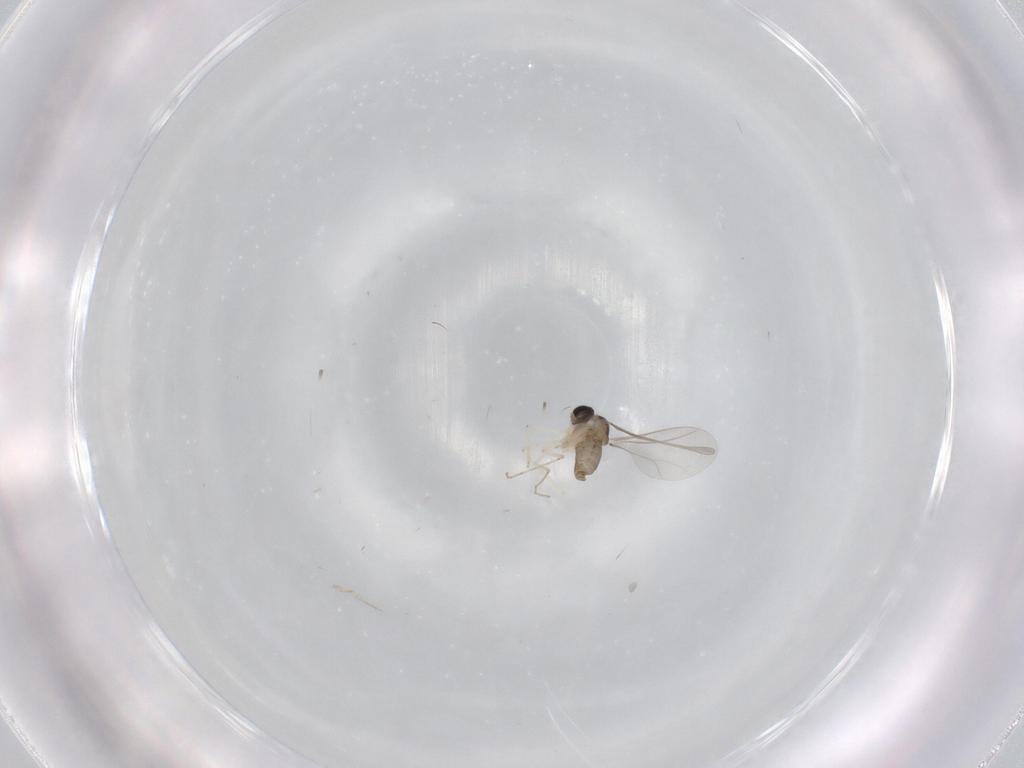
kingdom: Animalia
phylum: Arthropoda
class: Insecta
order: Diptera
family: Cecidomyiidae
